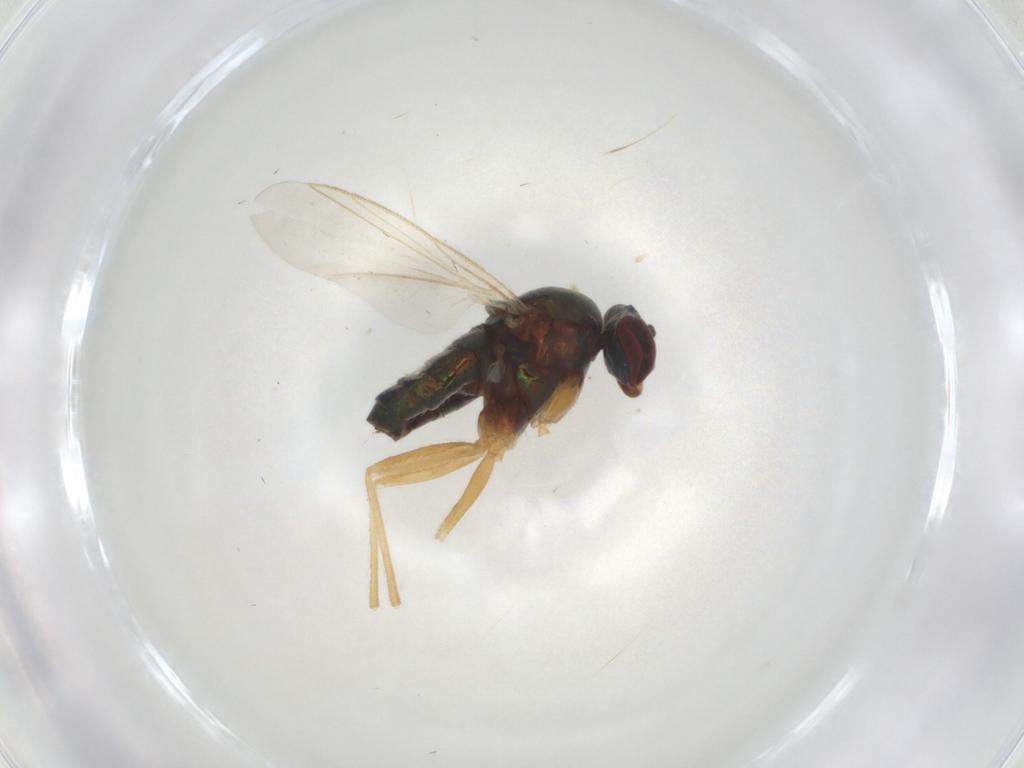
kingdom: Animalia
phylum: Arthropoda
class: Insecta
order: Diptera
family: Dolichopodidae
